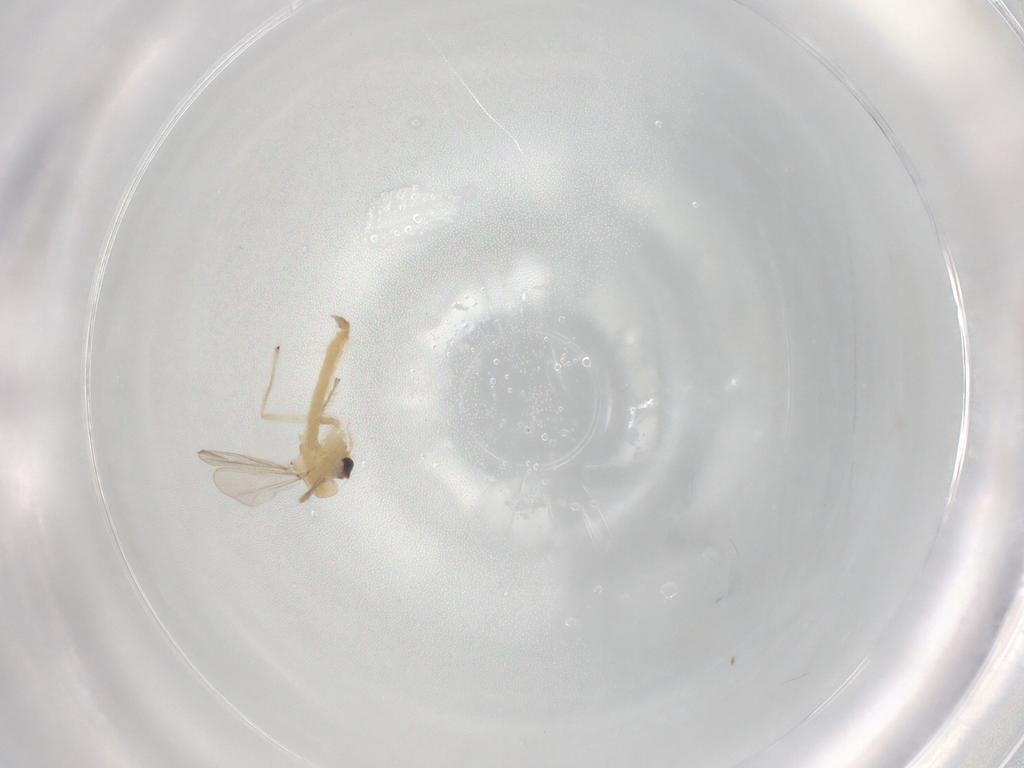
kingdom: Animalia
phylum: Arthropoda
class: Insecta
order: Diptera
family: Chironomidae
